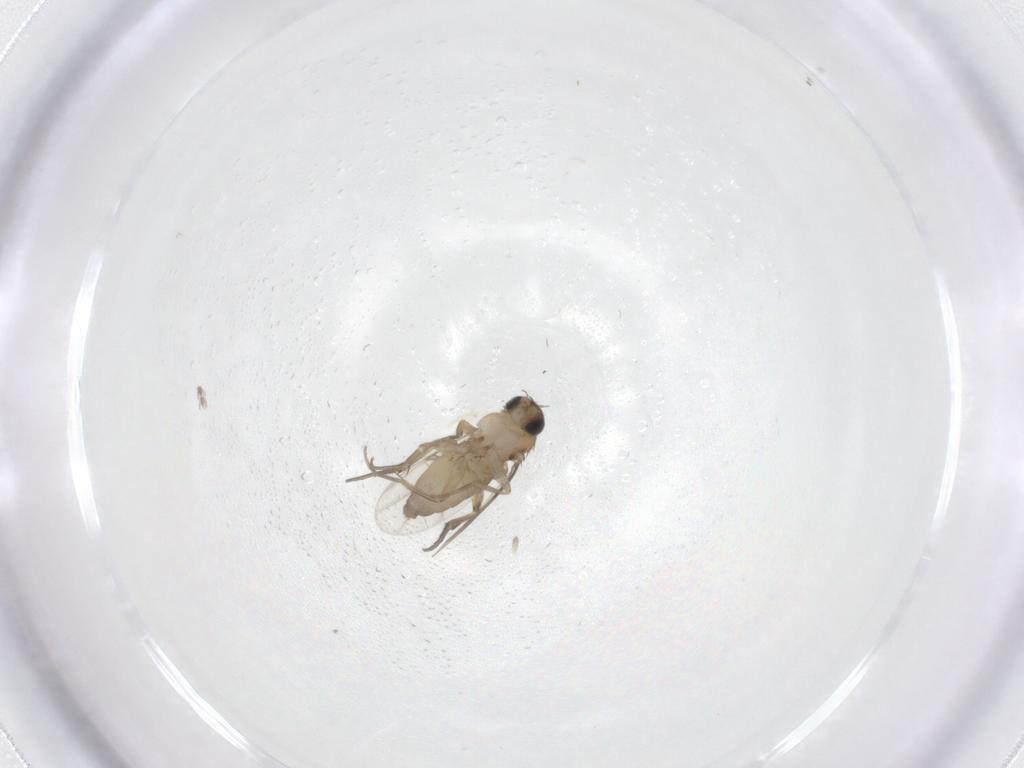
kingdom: Animalia
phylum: Arthropoda
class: Insecta
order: Diptera
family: Phoridae
